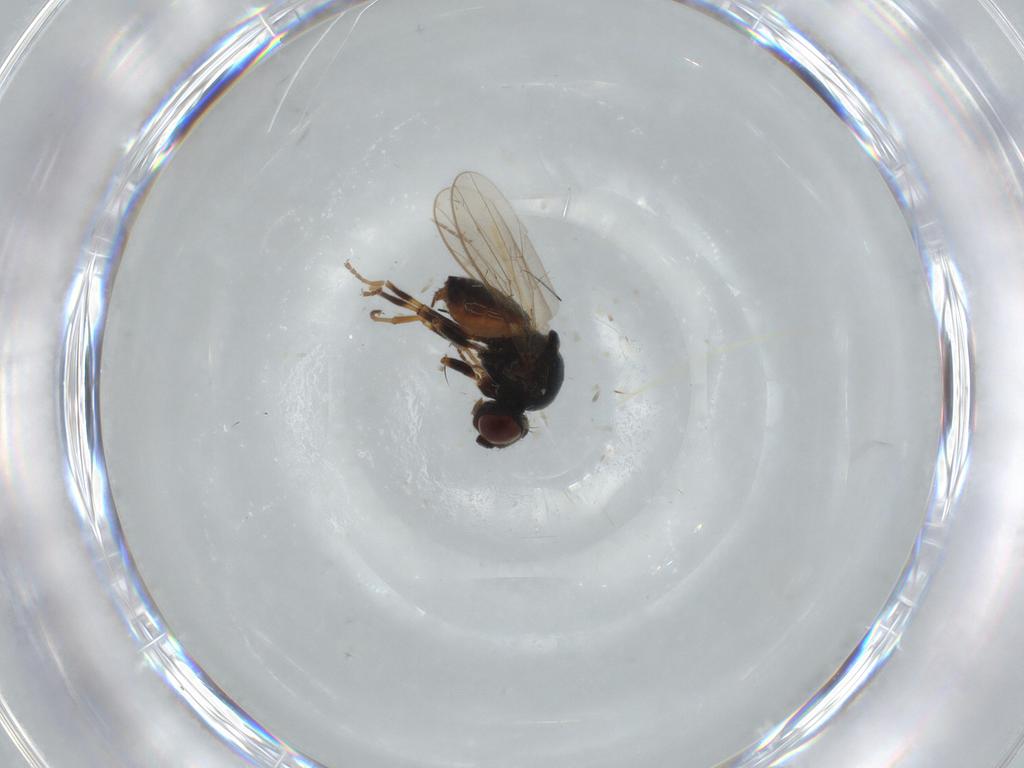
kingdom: Animalia
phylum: Arthropoda
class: Insecta
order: Diptera
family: Chloropidae
